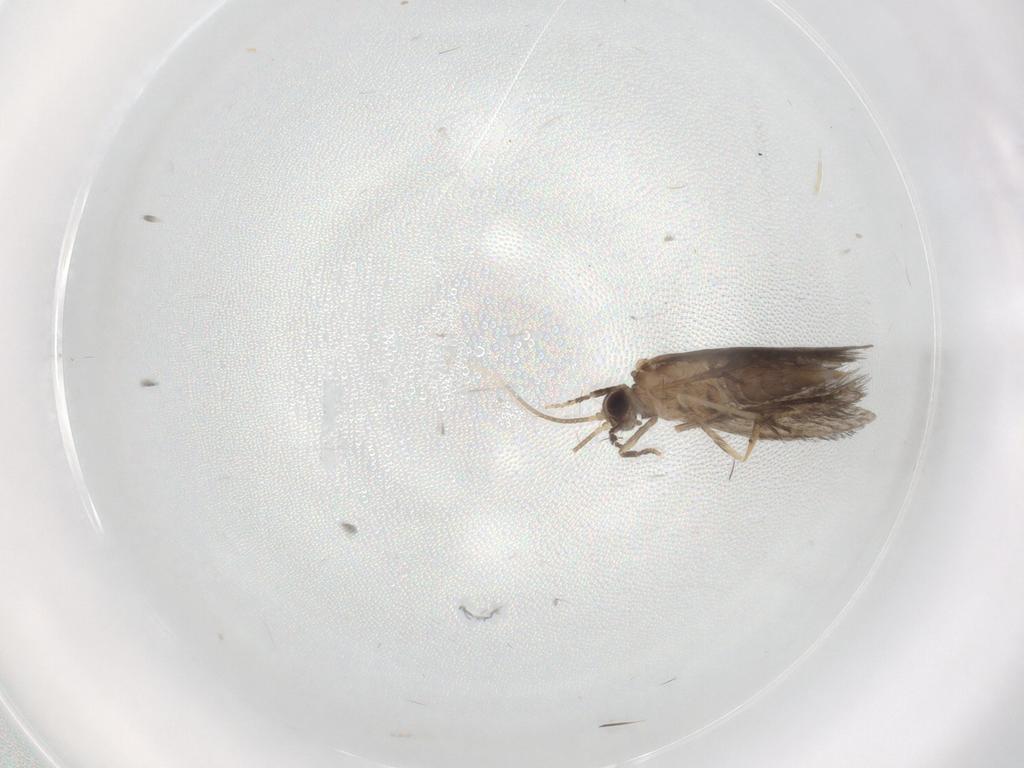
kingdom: Animalia
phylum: Arthropoda
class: Insecta
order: Trichoptera
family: Hydroptilidae
